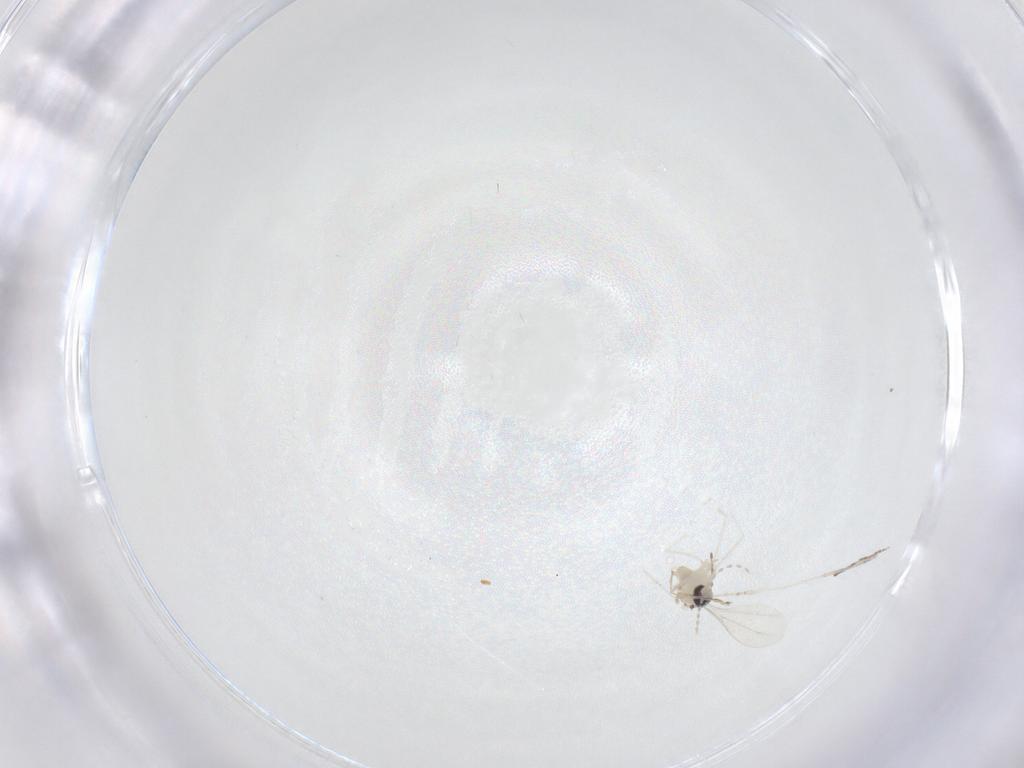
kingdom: Animalia
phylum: Arthropoda
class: Insecta
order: Diptera
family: Cecidomyiidae
